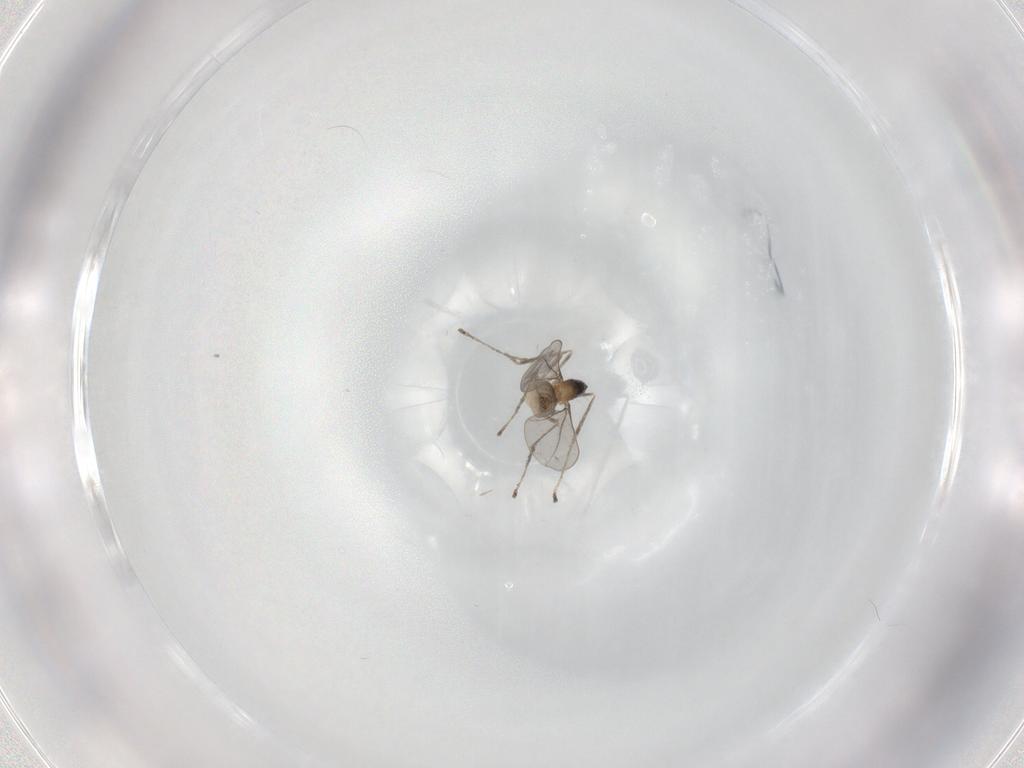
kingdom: Animalia
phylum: Arthropoda
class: Insecta
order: Diptera
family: Cecidomyiidae
